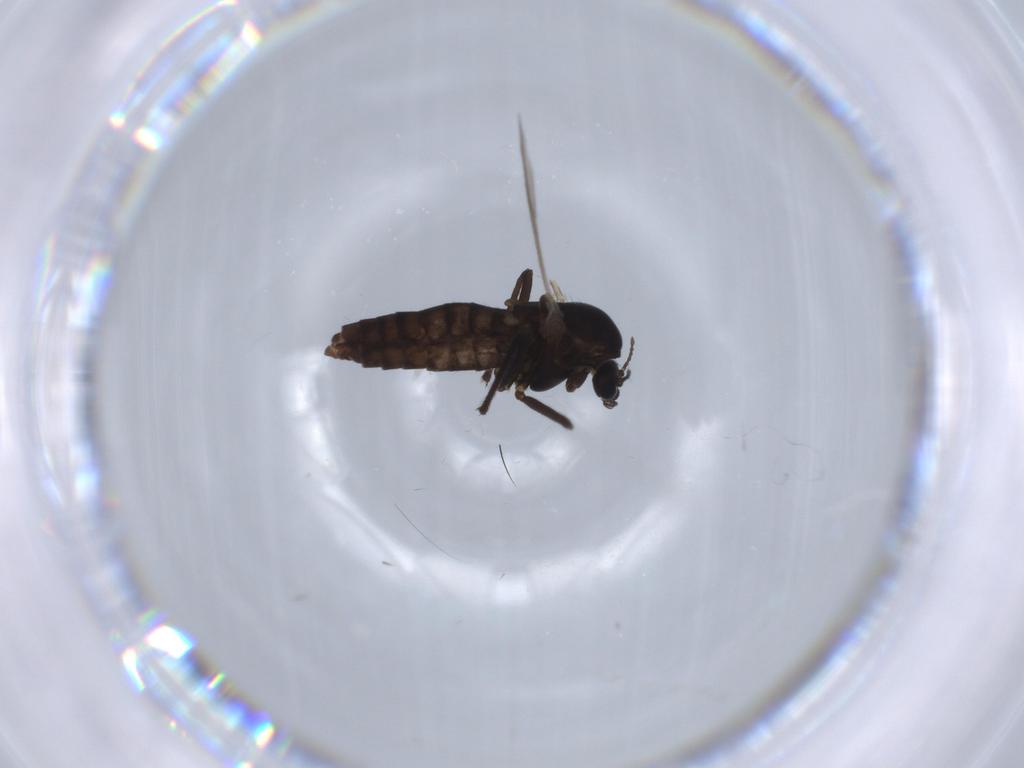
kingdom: Animalia
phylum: Arthropoda
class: Insecta
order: Diptera
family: Chironomidae
